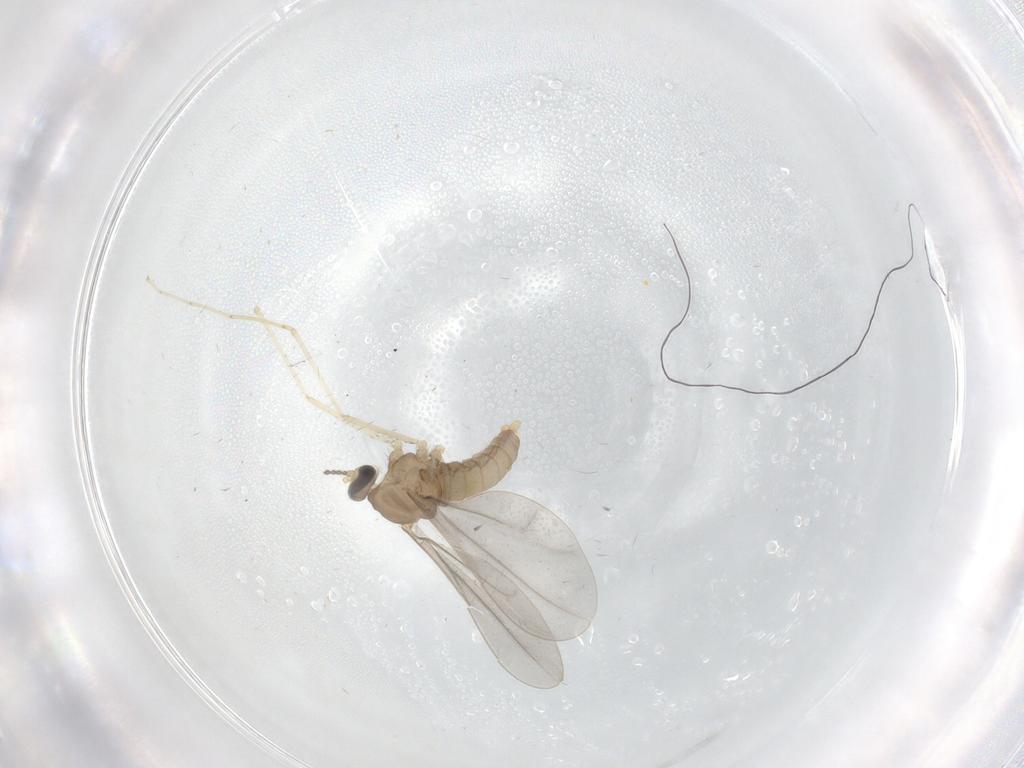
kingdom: Animalia
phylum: Arthropoda
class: Insecta
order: Diptera
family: Cecidomyiidae
